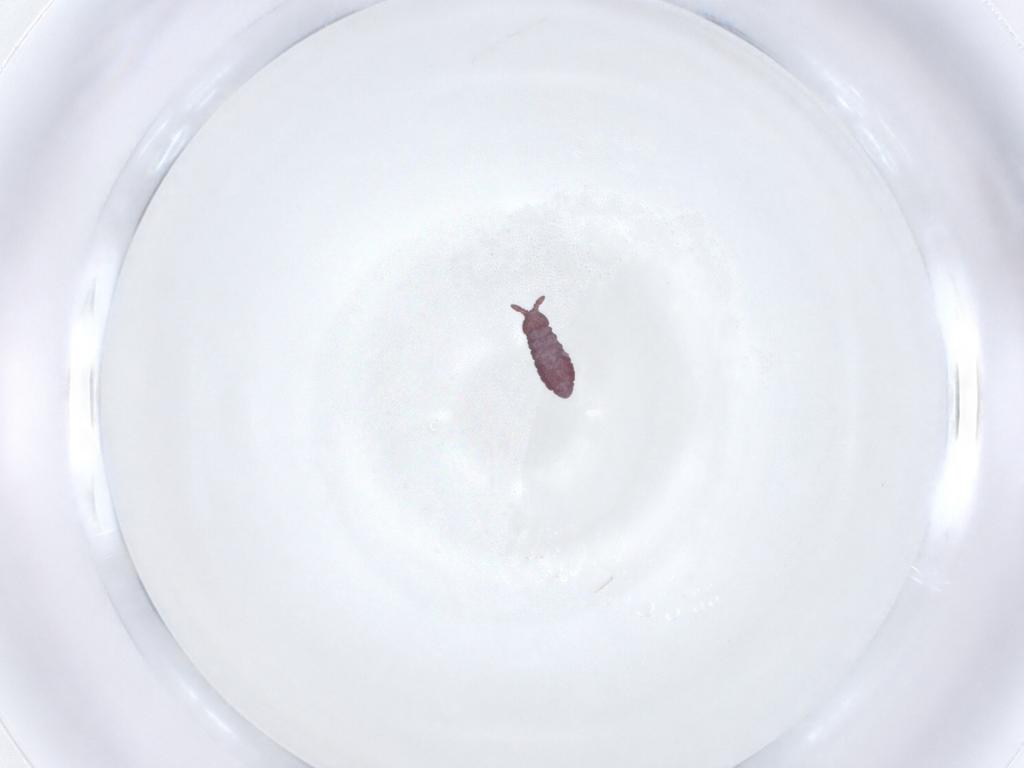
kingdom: Animalia
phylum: Arthropoda
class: Collembola
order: Poduromorpha
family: Hypogastruridae
